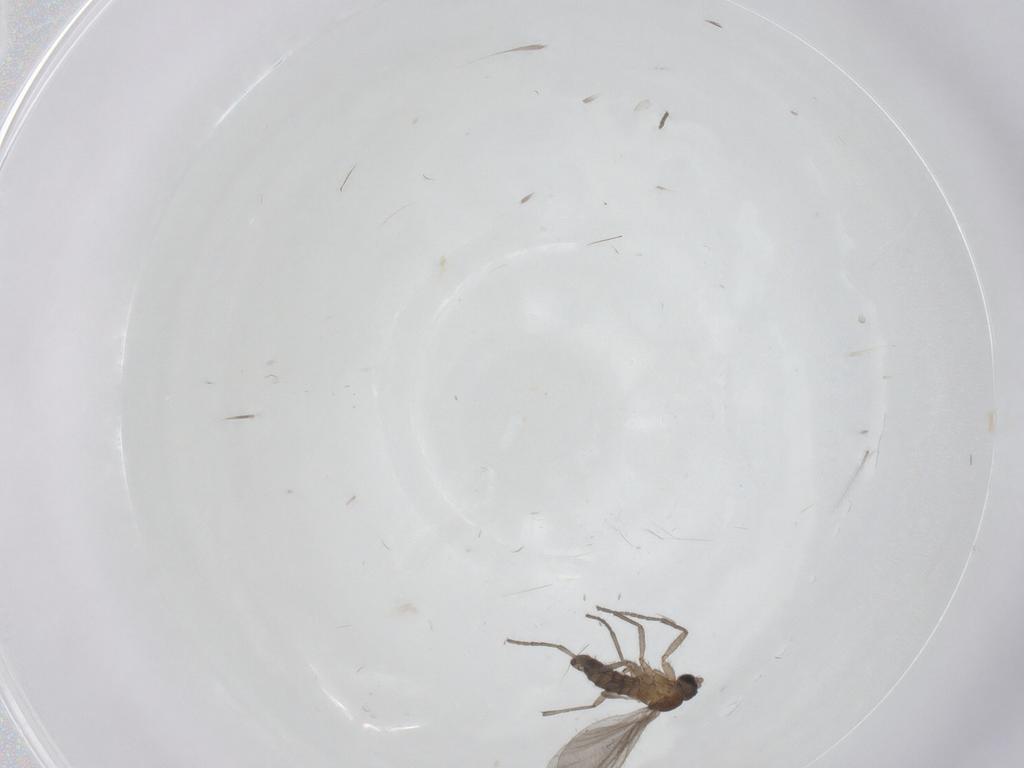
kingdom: Animalia
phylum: Arthropoda
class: Insecta
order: Diptera
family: Sciaridae
